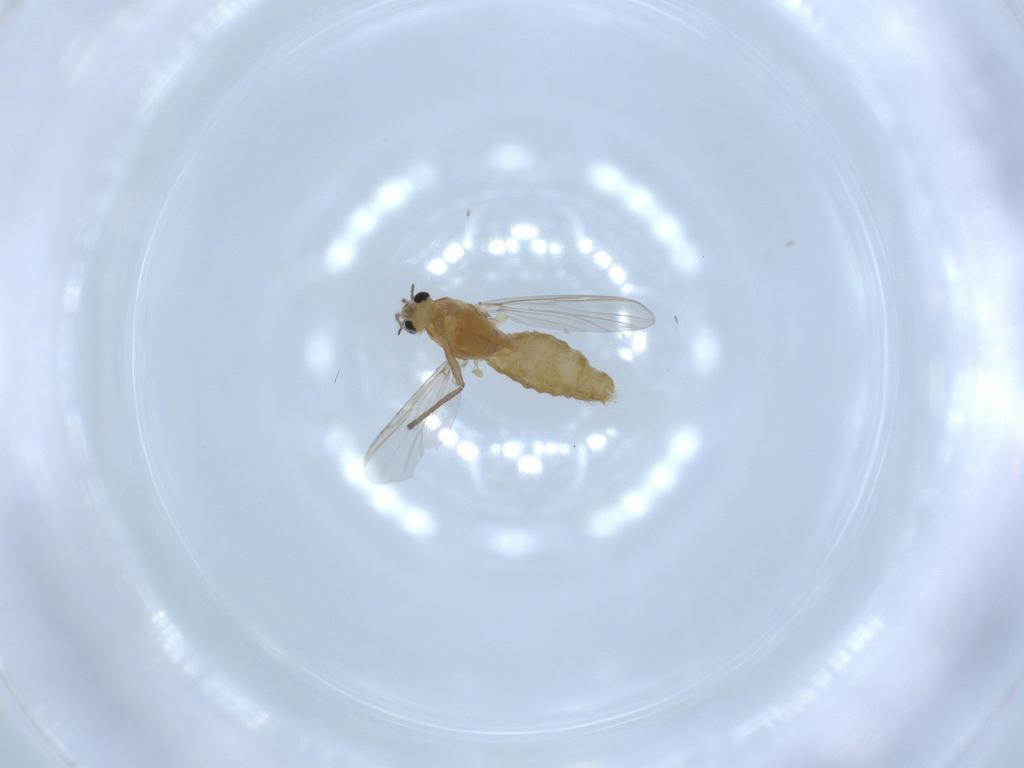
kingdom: Animalia
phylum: Arthropoda
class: Insecta
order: Diptera
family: Chironomidae
